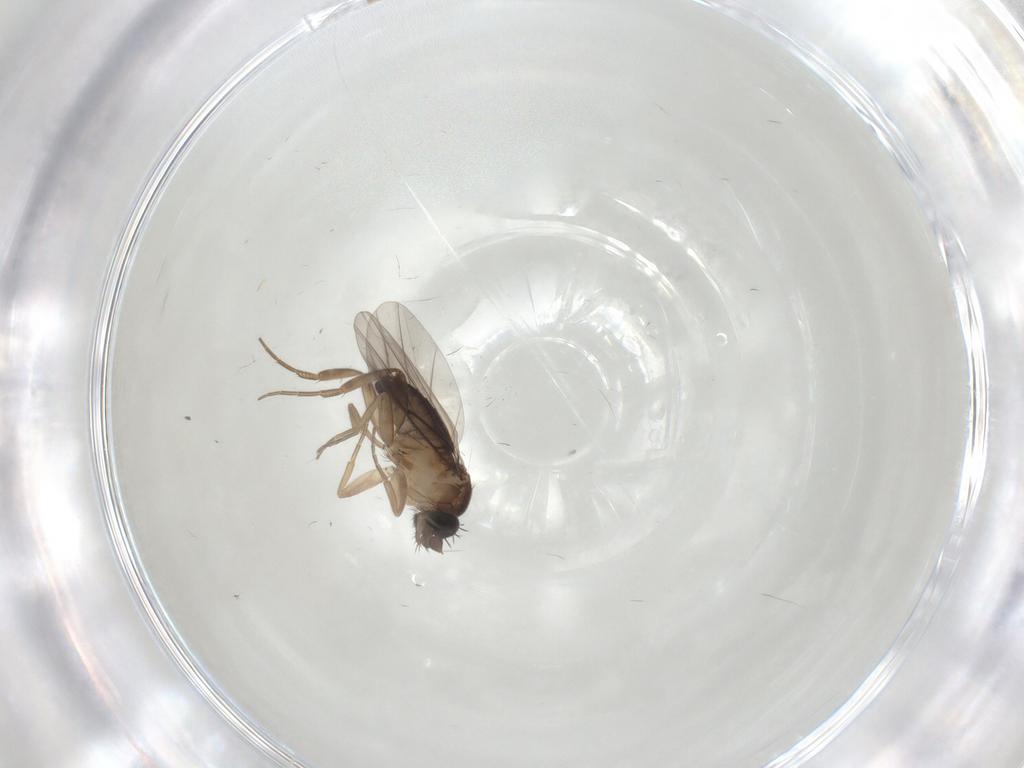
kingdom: Animalia
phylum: Arthropoda
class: Insecta
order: Diptera
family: Phoridae
